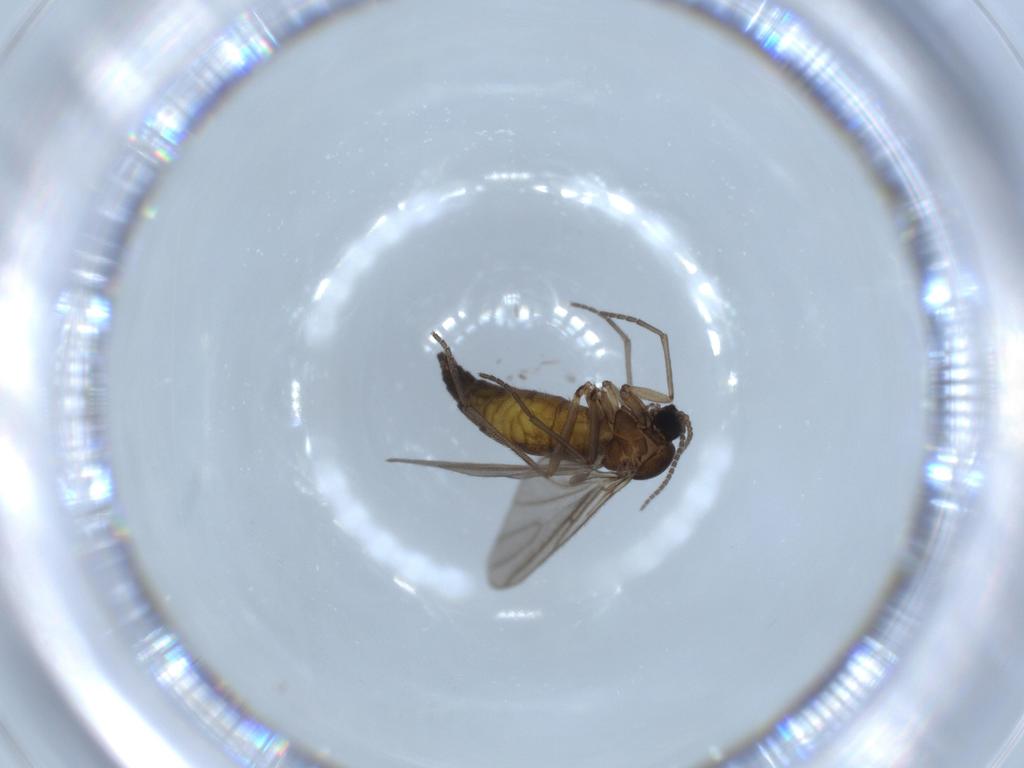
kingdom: Animalia
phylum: Arthropoda
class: Insecta
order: Diptera
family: Sciaridae
